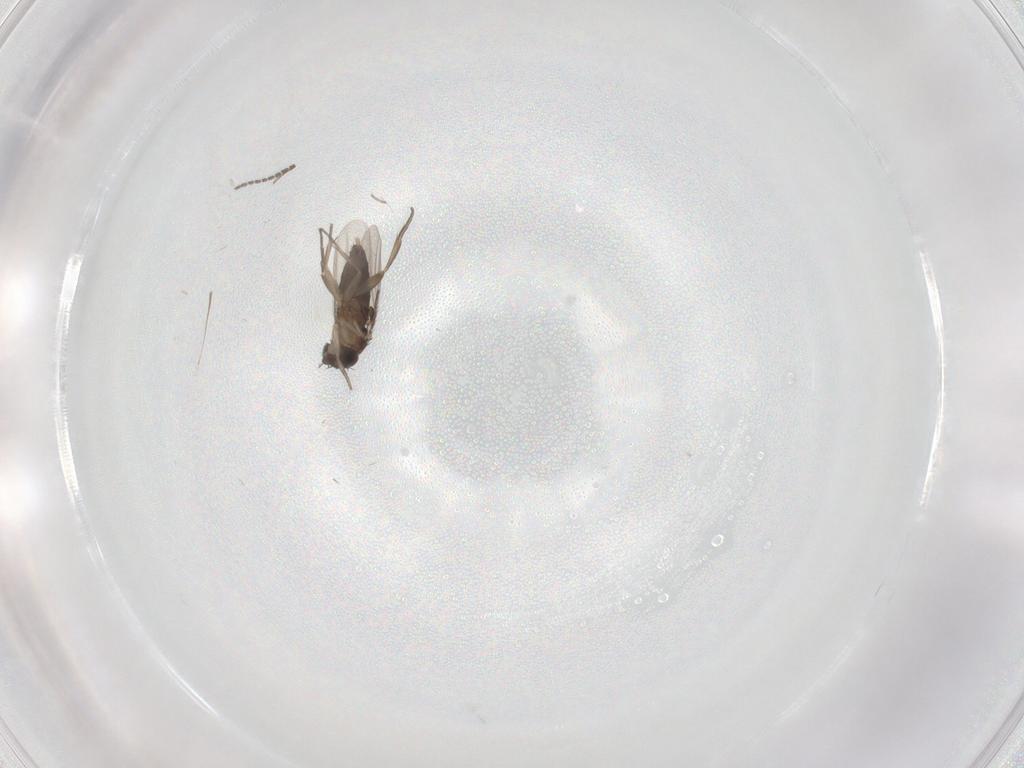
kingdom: Animalia
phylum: Arthropoda
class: Insecta
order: Diptera
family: Phoridae
